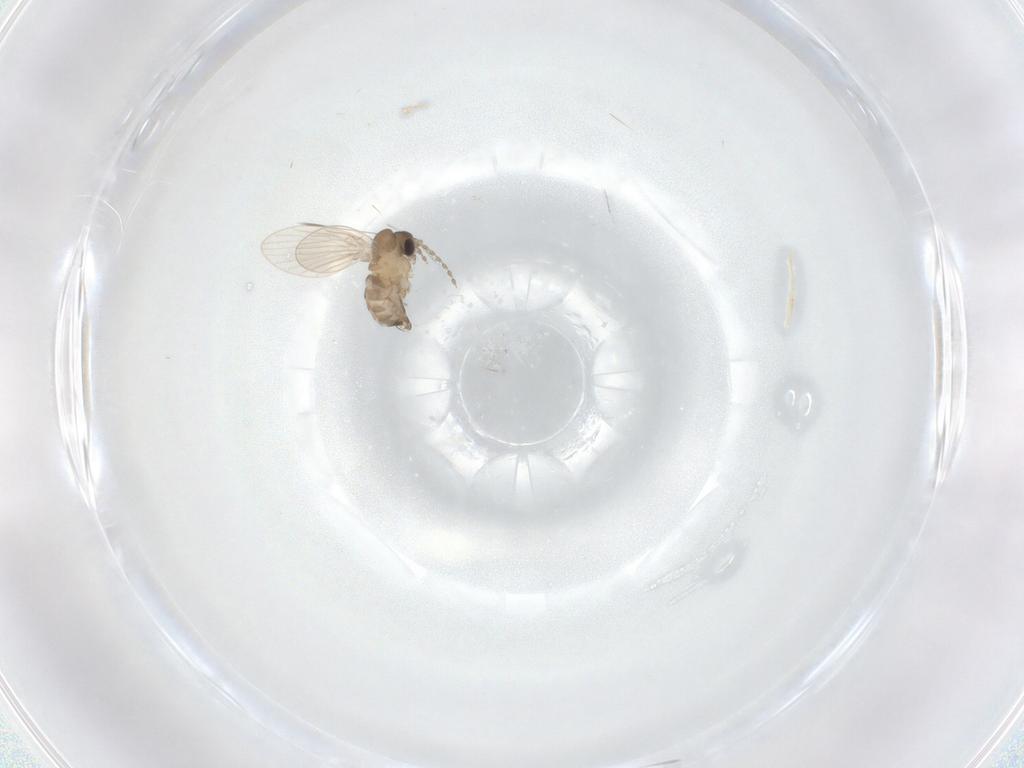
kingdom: Animalia
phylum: Arthropoda
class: Insecta
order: Diptera
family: Psychodidae
